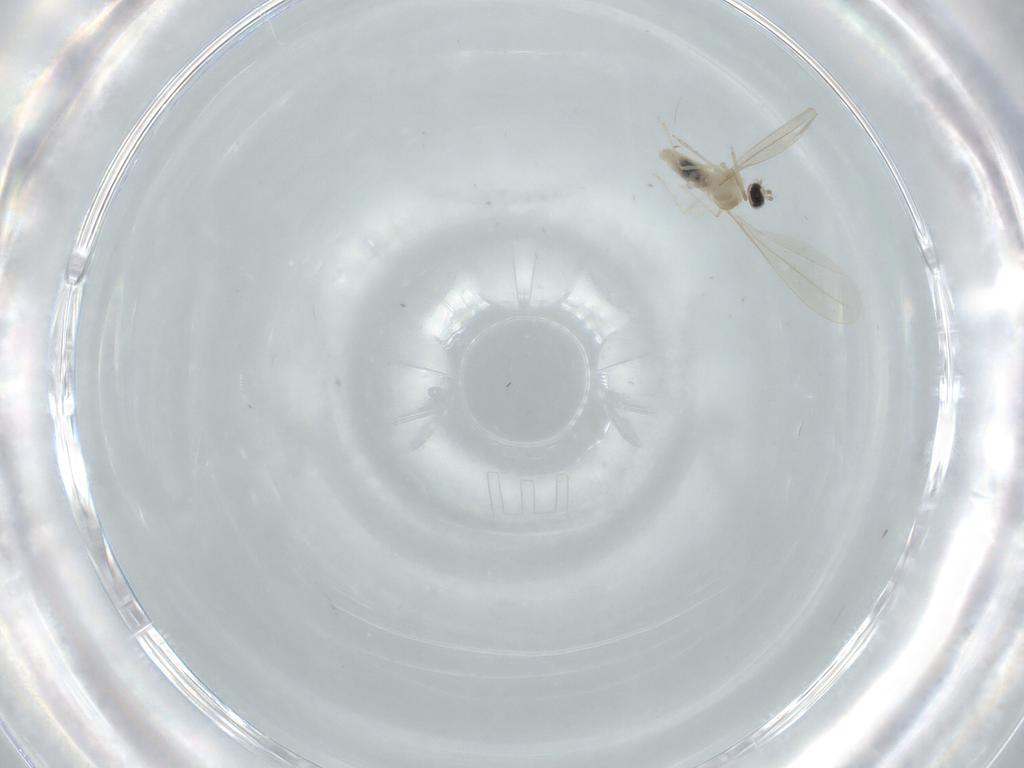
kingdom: Animalia
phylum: Arthropoda
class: Insecta
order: Diptera
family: Cecidomyiidae
